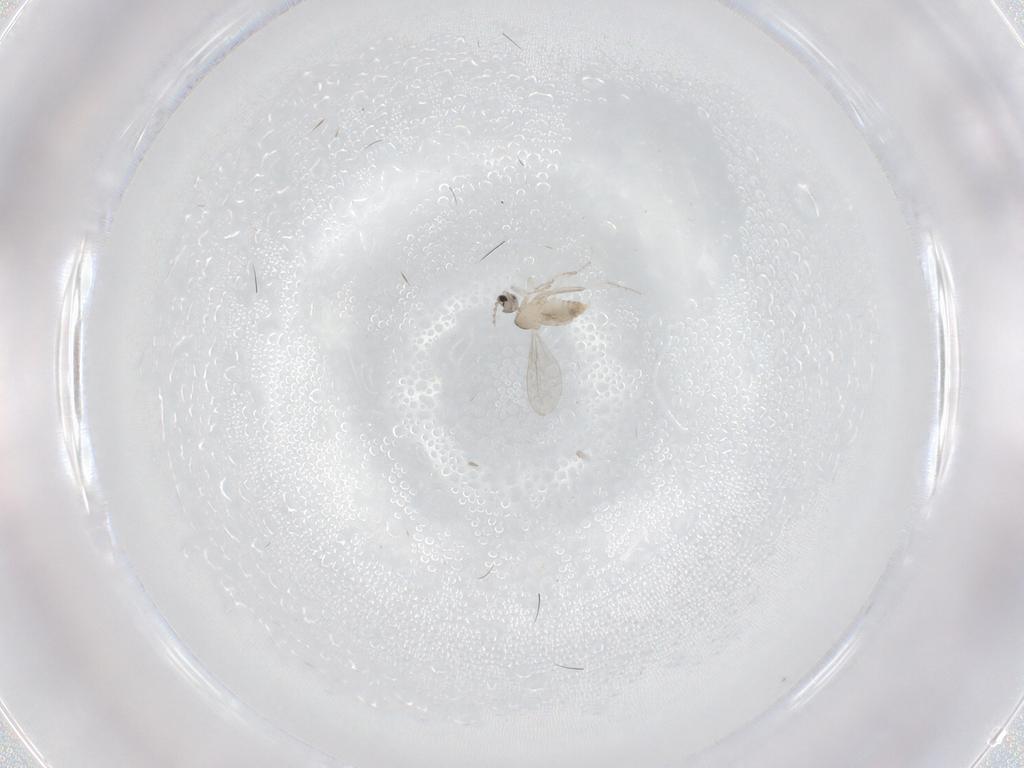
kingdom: Animalia
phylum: Arthropoda
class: Insecta
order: Diptera
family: Cecidomyiidae
